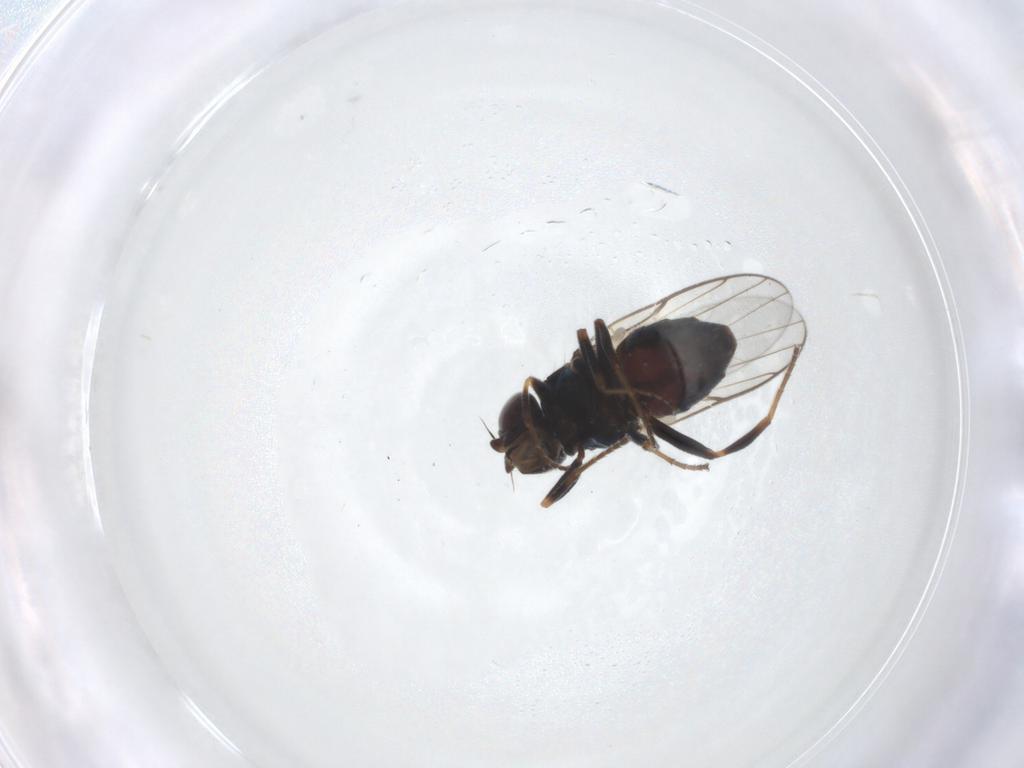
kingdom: Animalia
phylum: Arthropoda
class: Insecta
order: Diptera
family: Chloropidae
